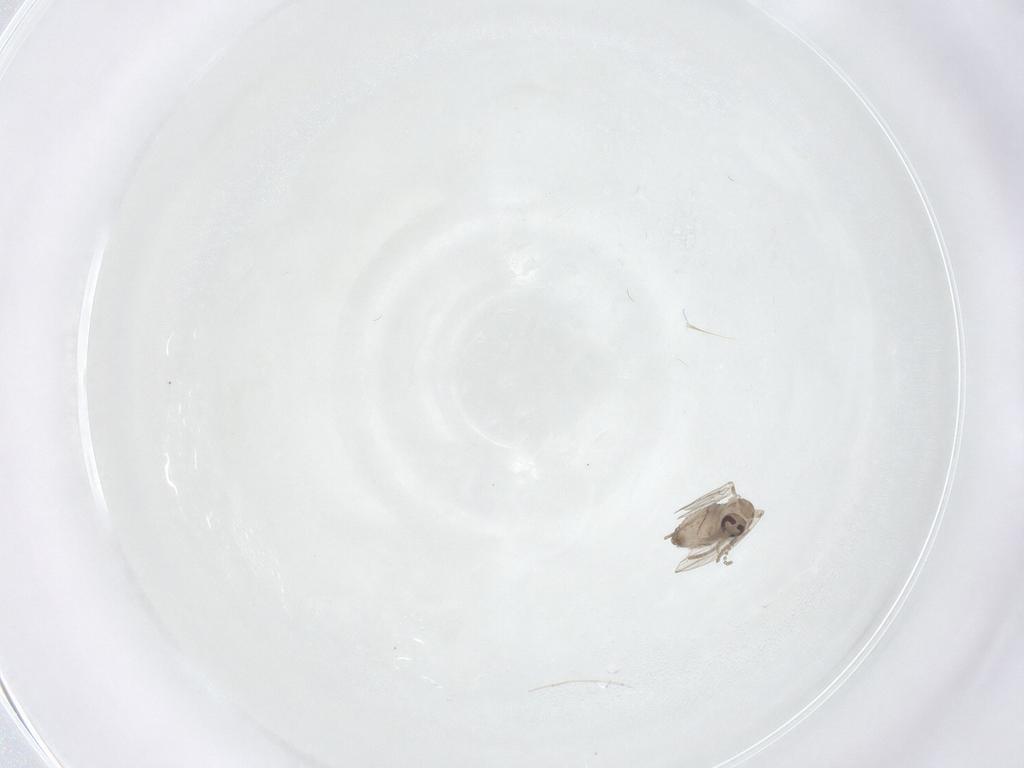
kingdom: Animalia
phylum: Arthropoda
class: Insecta
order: Diptera
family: Psychodidae
